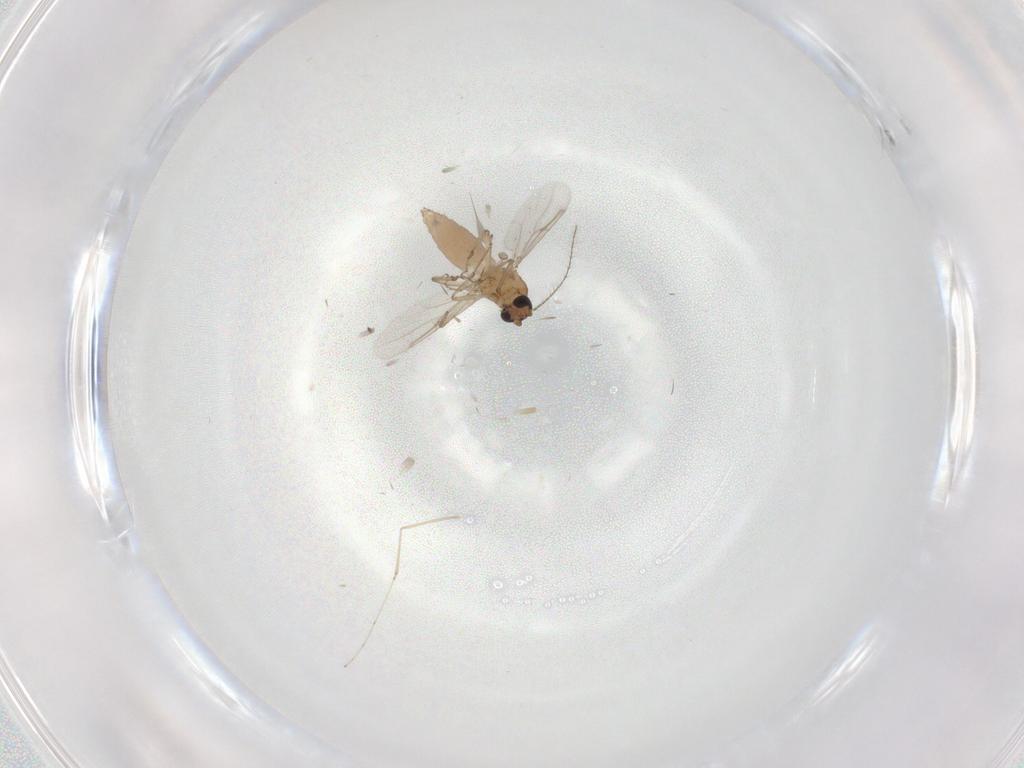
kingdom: Animalia
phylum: Arthropoda
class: Insecta
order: Diptera
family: Ceratopogonidae
